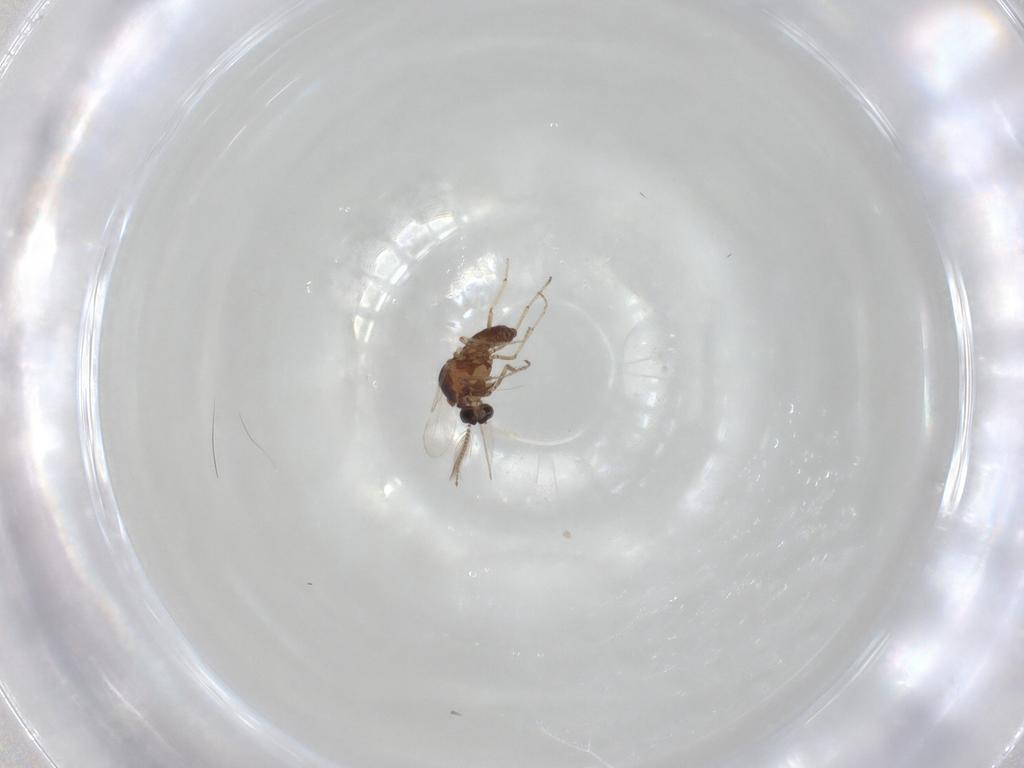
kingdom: Animalia
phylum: Arthropoda
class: Insecta
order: Diptera
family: Ceratopogonidae
